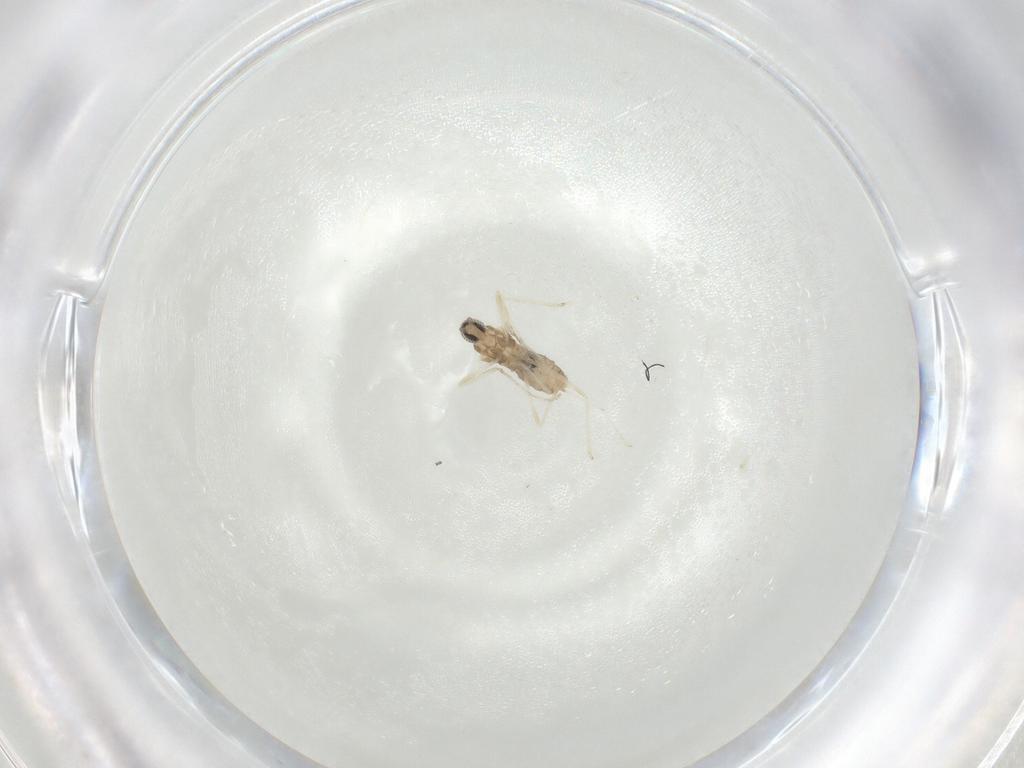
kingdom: Animalia
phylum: Arthropoda
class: Insecta
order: Diptera
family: Cecidomyiidae
